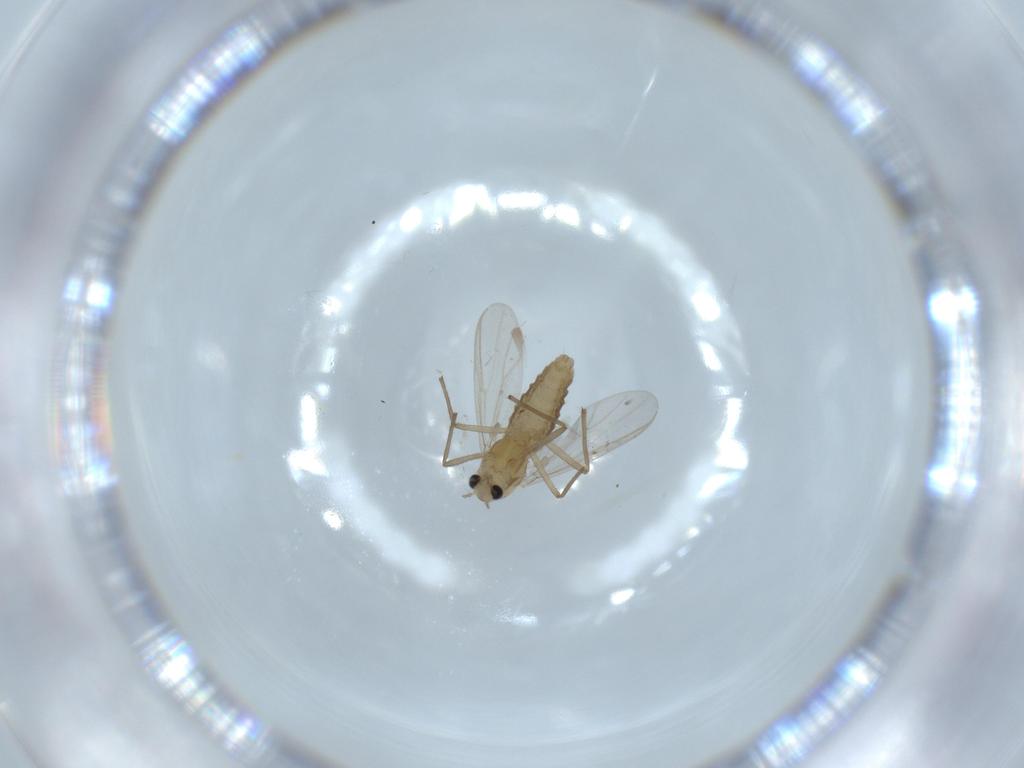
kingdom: Animalia
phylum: Arthropoda
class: Insecta
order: Diptera
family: Chironomidae
